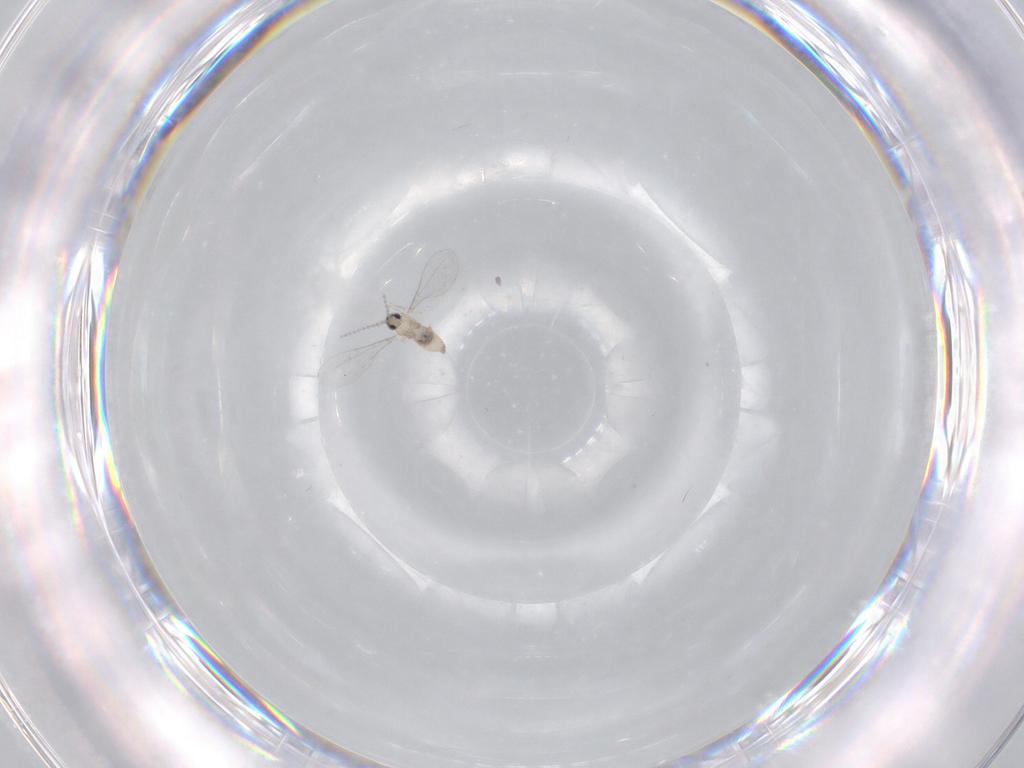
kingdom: Animalia
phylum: Arthropoda
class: Insecta
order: Diptera
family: Cecidomyiidae
